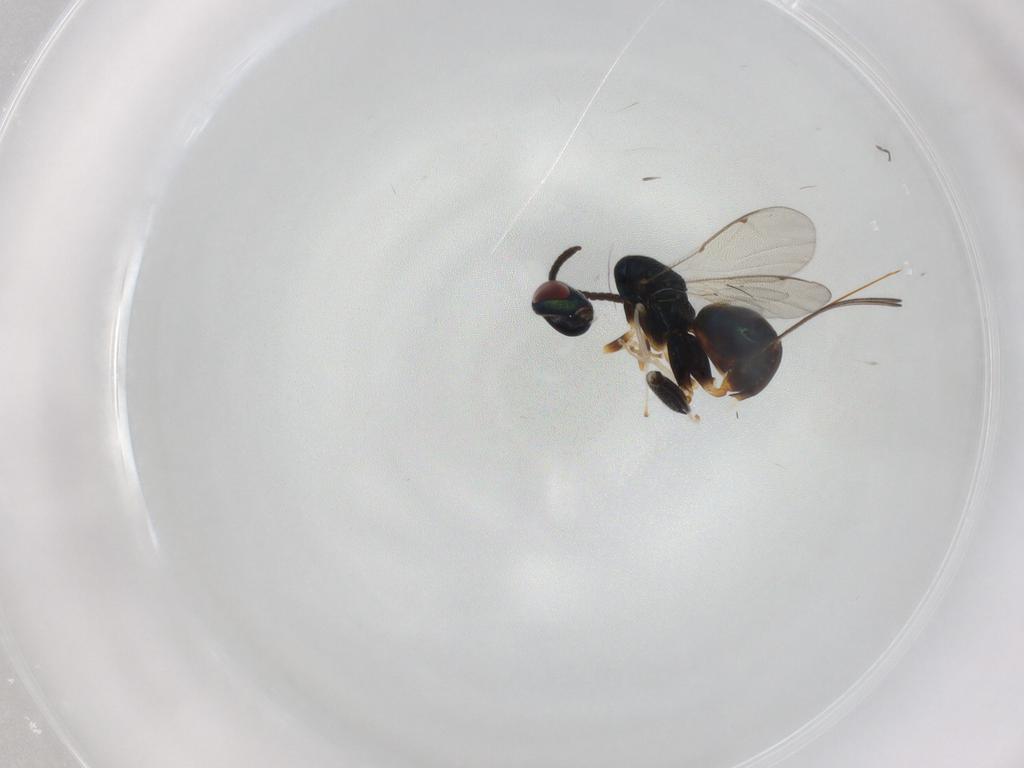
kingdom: Animalia
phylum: Arthropoda
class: Insecta
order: Hymenoptera
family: Torymidae
